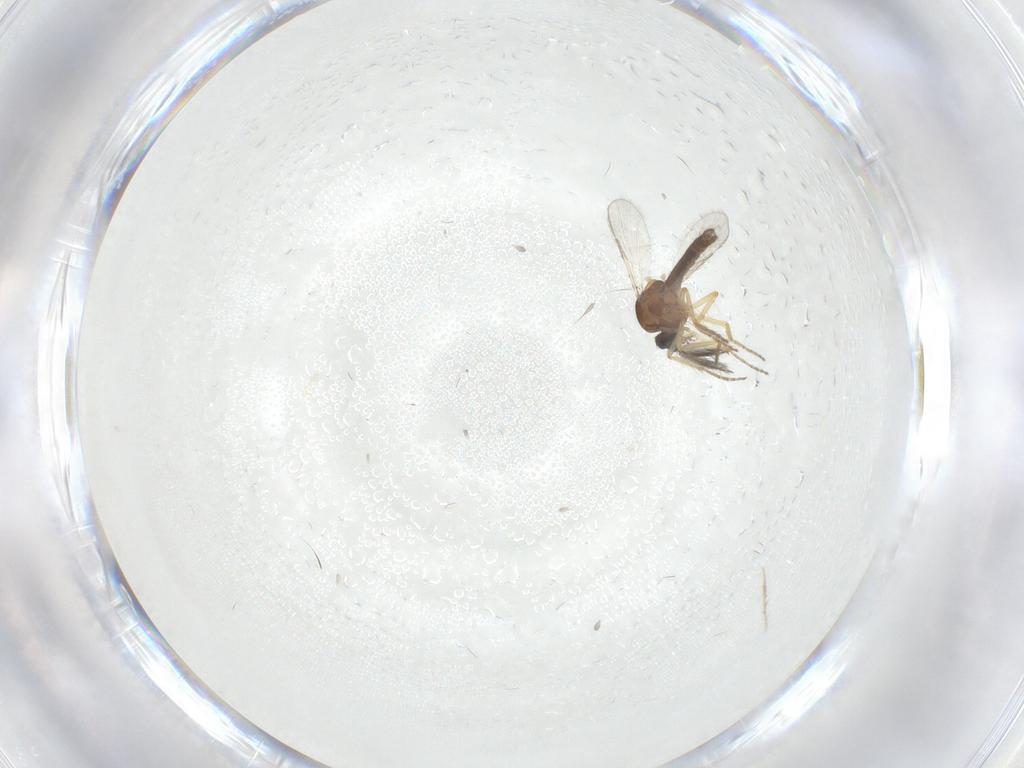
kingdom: Animalia
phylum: Arthropoda
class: Insecta
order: Diptera
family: Ceratopogonidae
